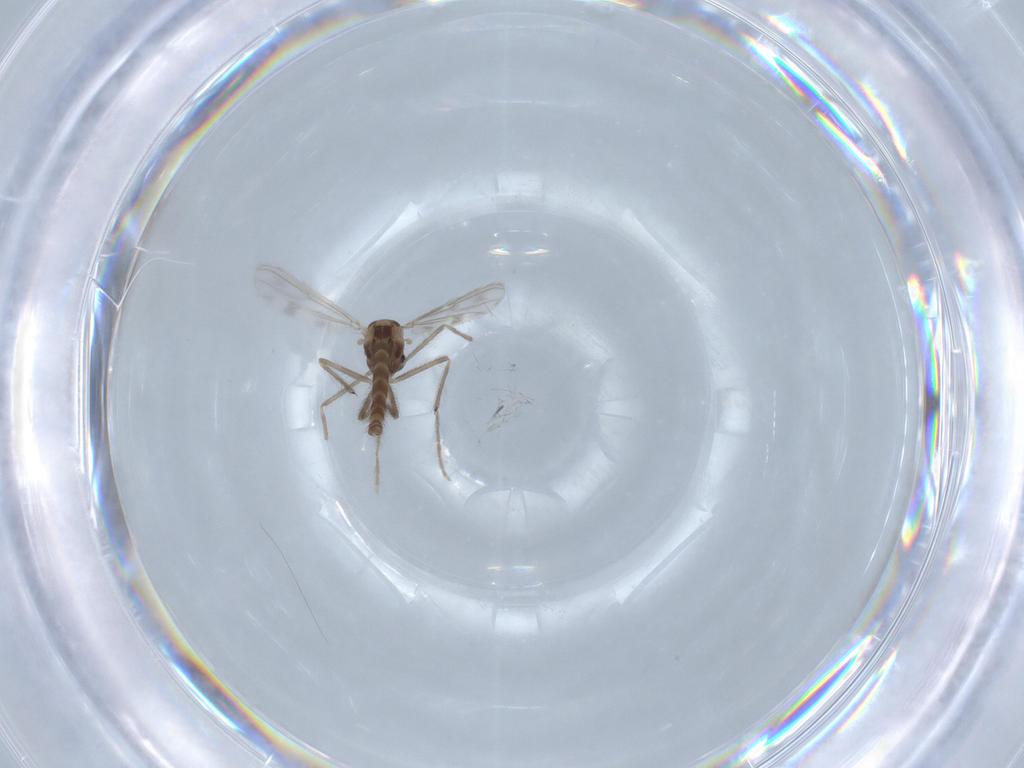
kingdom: Animalia
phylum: Arthropoda
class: Insecta
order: Diptera
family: Chironomidae
